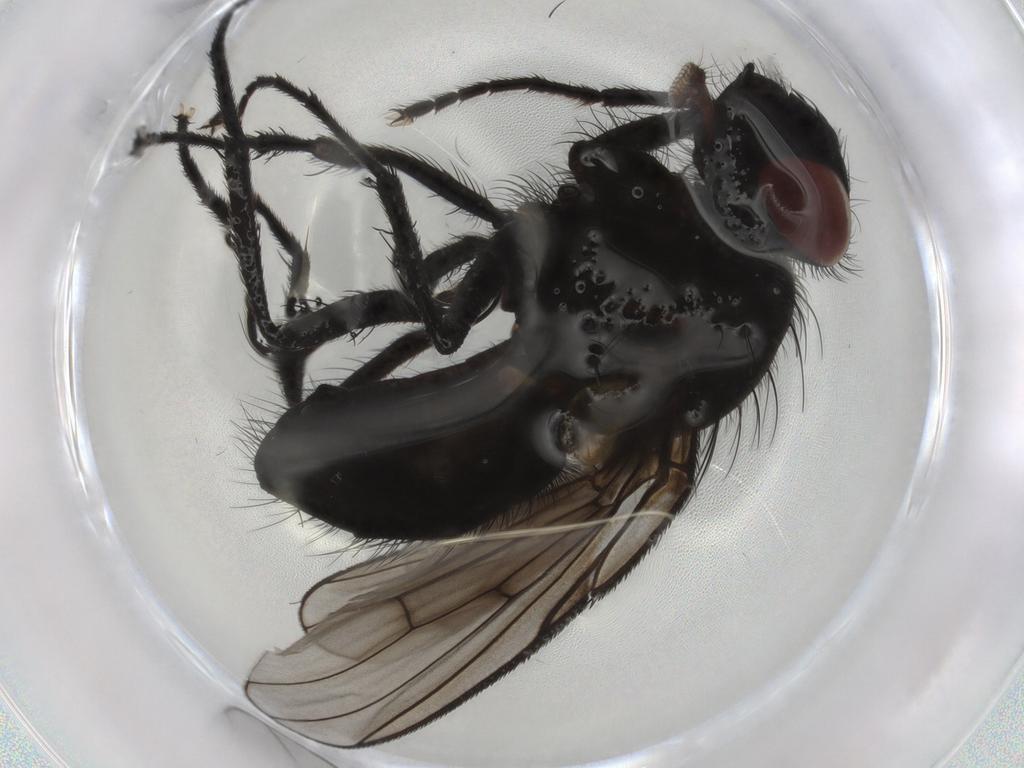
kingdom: Animalia
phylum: Arthropoda
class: Insecta
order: Diptera
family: Muscidae
